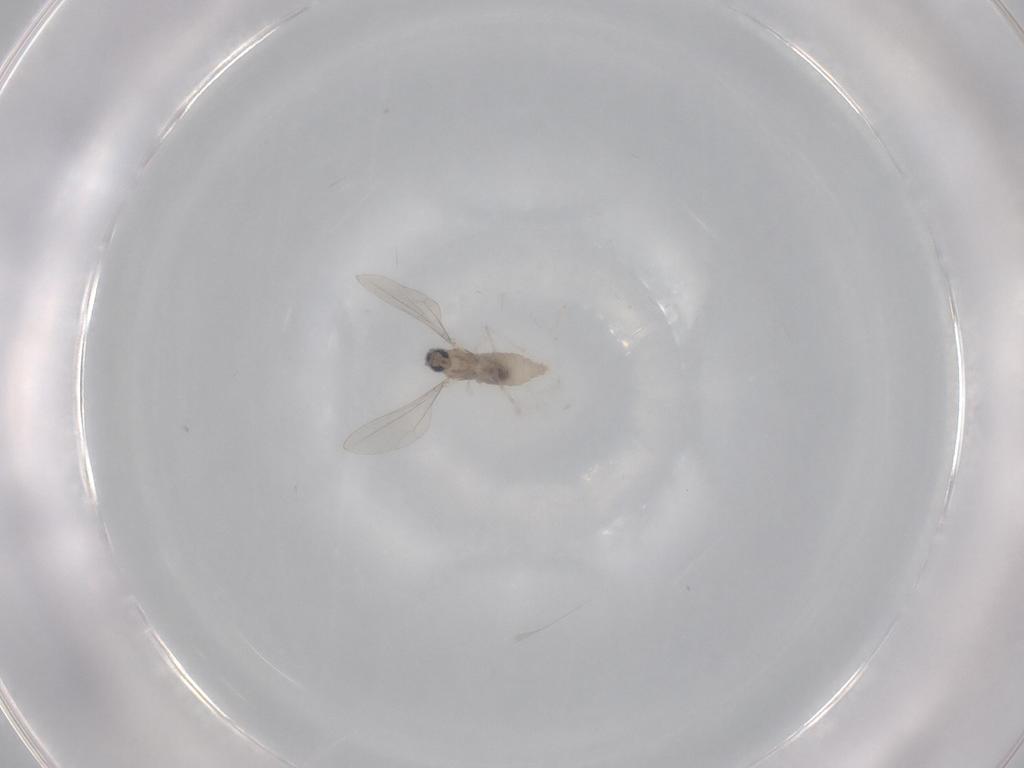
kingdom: Animalia
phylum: Arthropoda
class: Insecta
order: Diptera
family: Cecidomyiidae
